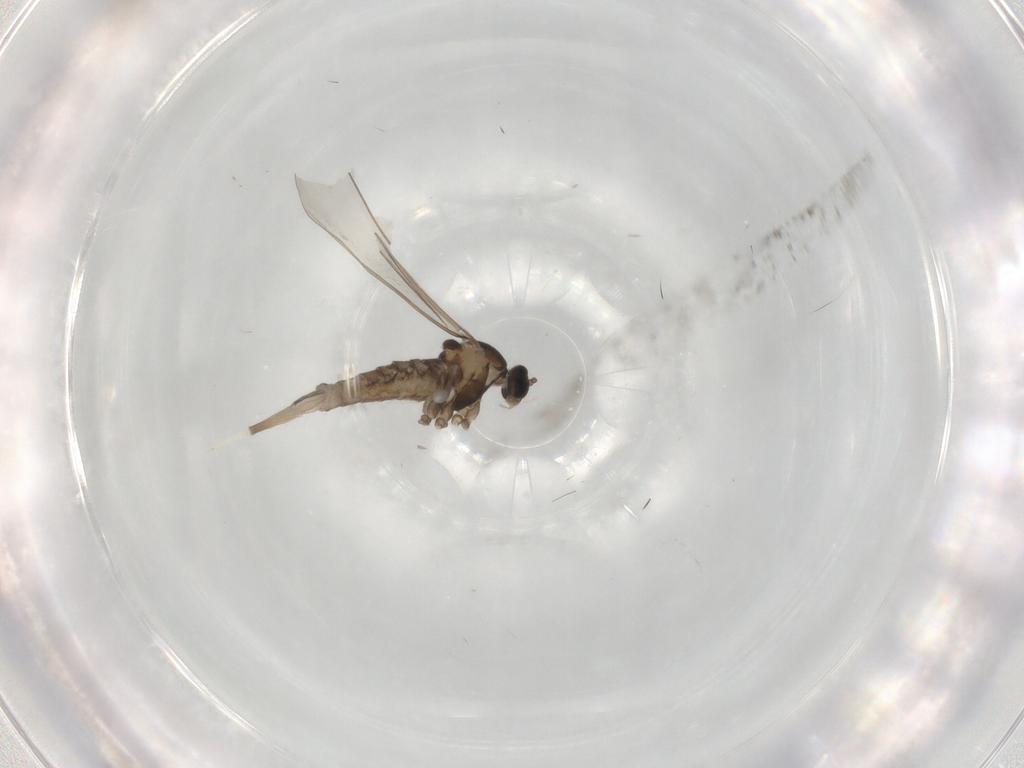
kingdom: Animalia
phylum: Arthropoda
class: Insecta
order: Diptera
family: Cecidomyiidae
